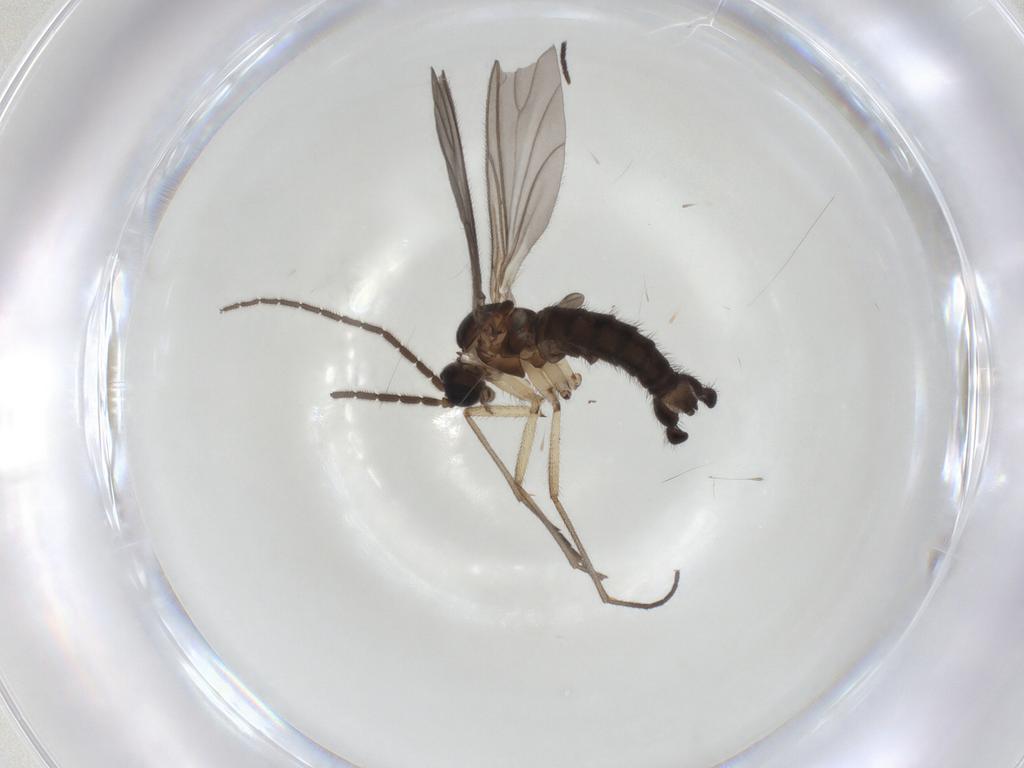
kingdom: Animalia
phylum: Arthropoda
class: Insecta
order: Diptera
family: Sciaridae
